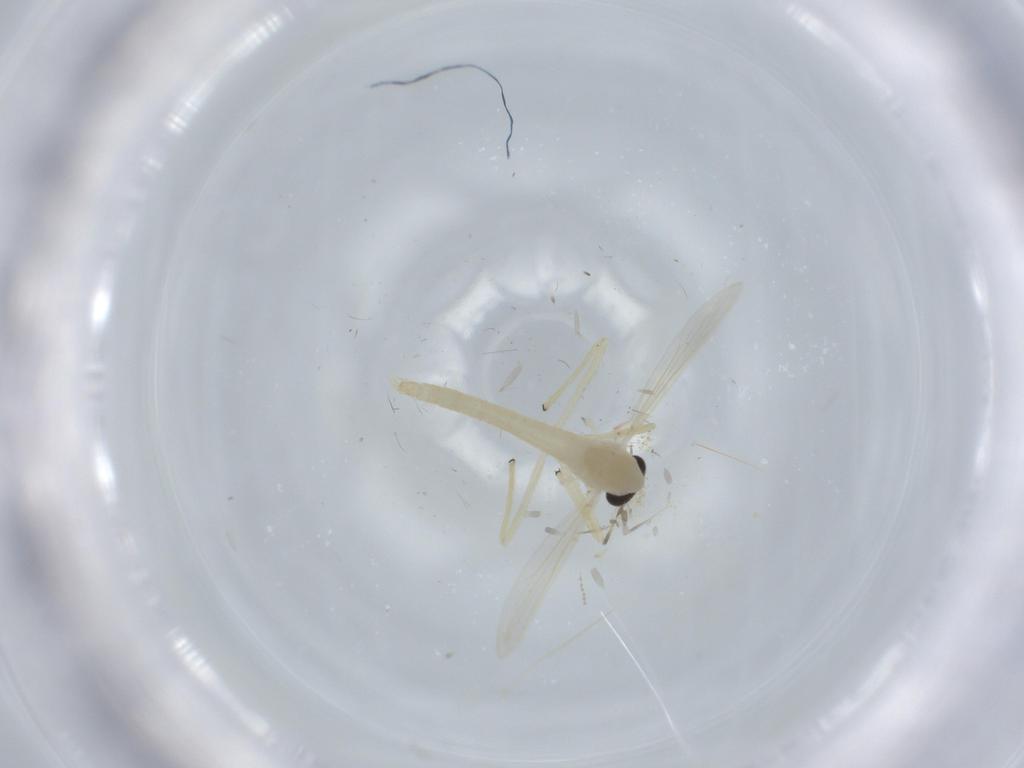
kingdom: Animalia
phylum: Arthropoda
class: Insecta
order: Diptera
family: Chironomidae
